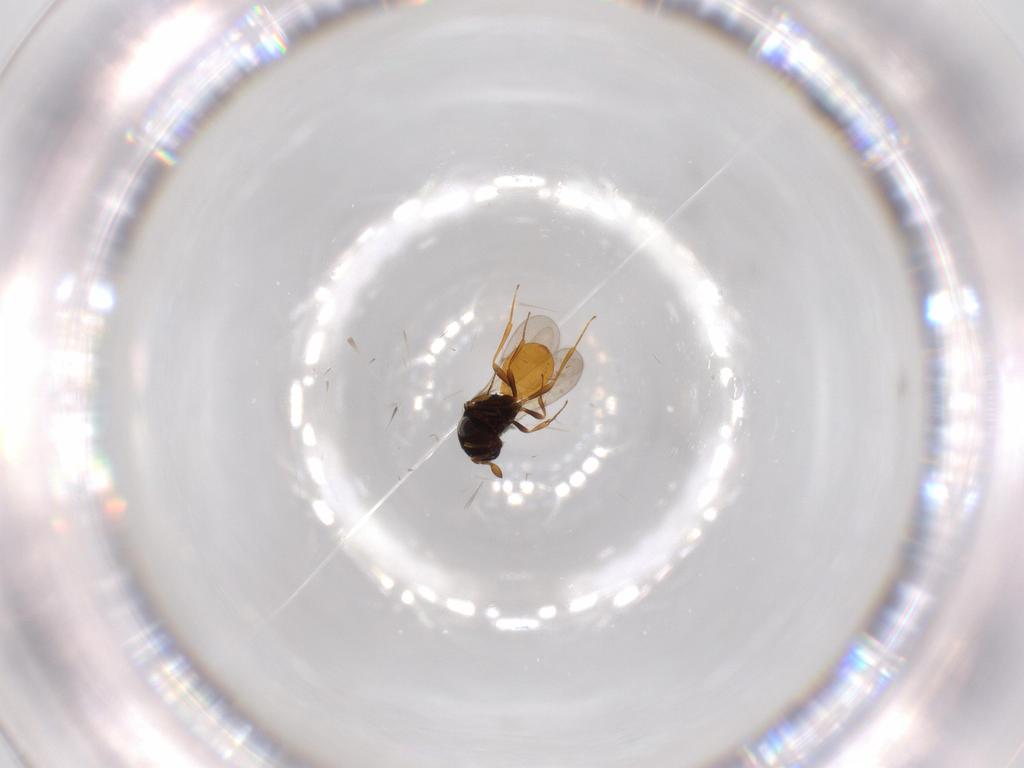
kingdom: Animalia
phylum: Arthropoda
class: Insecta
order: Hymenoptera
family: Scelionidae
